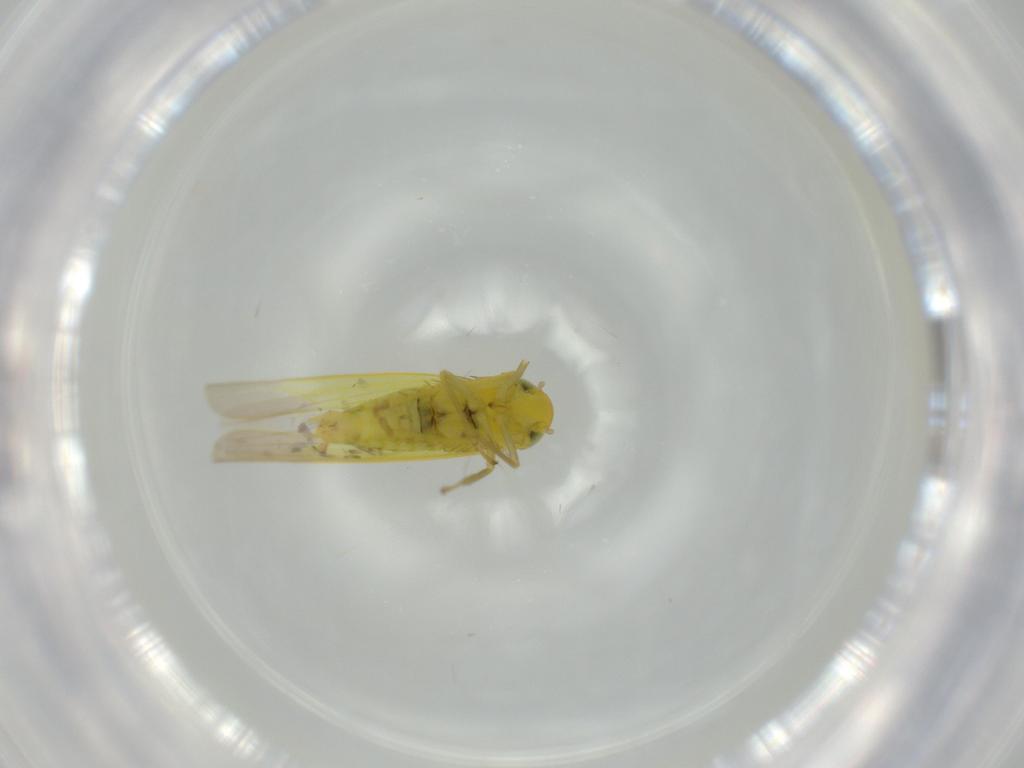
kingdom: Animalia
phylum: Arthropoda
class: Insecta
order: Hemiptera
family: Cicadellidae
